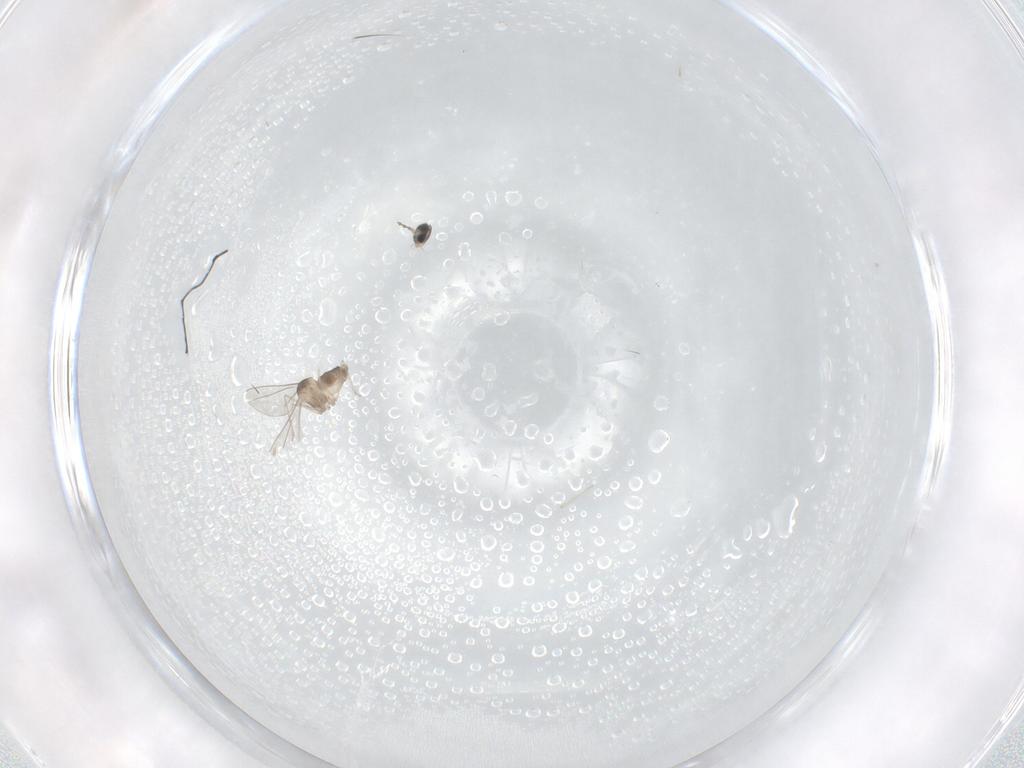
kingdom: Animalia
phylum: Arthropoda
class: Insecta
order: Diptera
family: Cecidomyiidae
